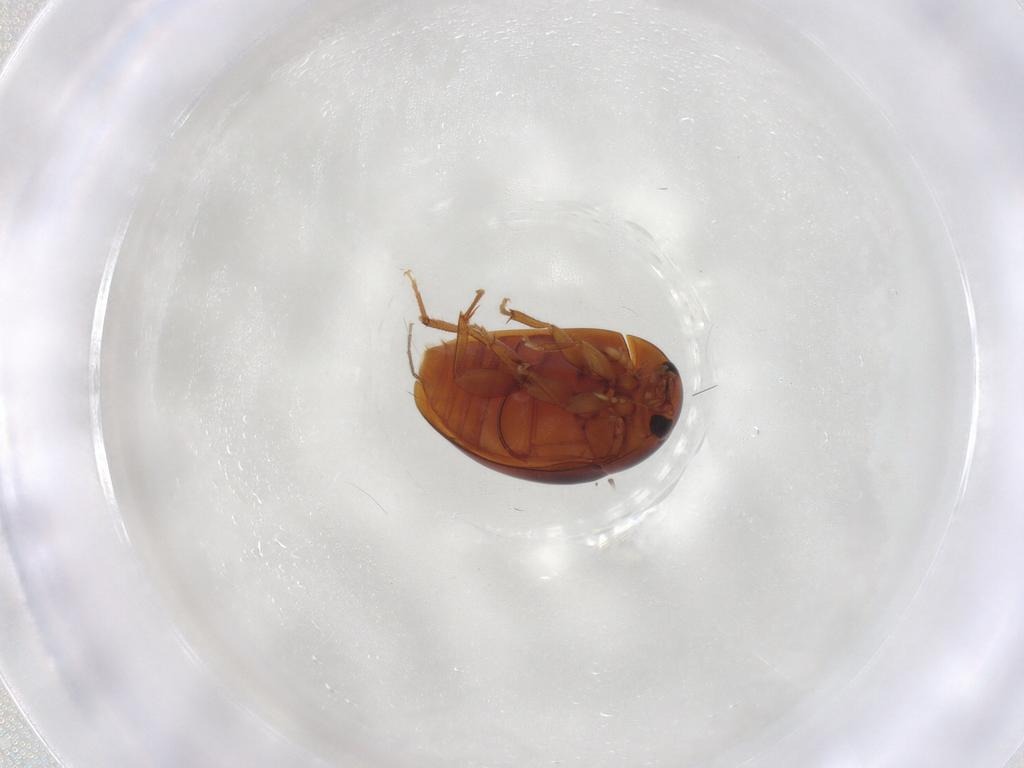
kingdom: Animalia
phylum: Arthropoda
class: Insecta
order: Coleoptera
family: Phalacridae
